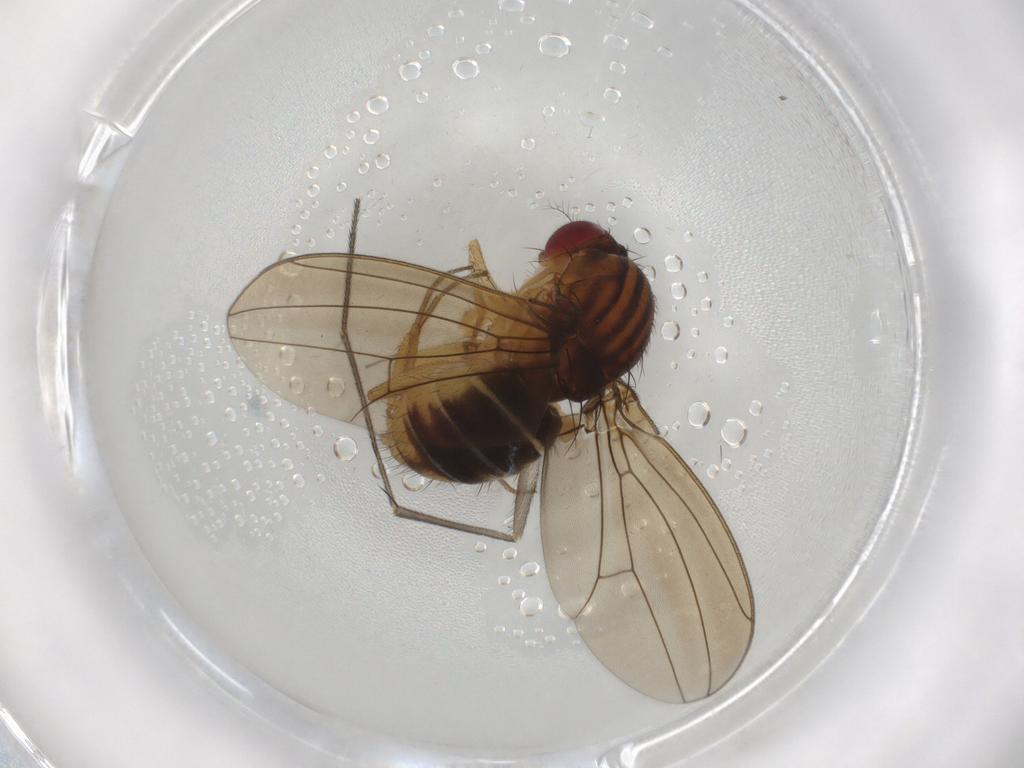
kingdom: Animalia
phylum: Arthropoda
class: Insecta
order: Diptera
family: Drosophilidae
